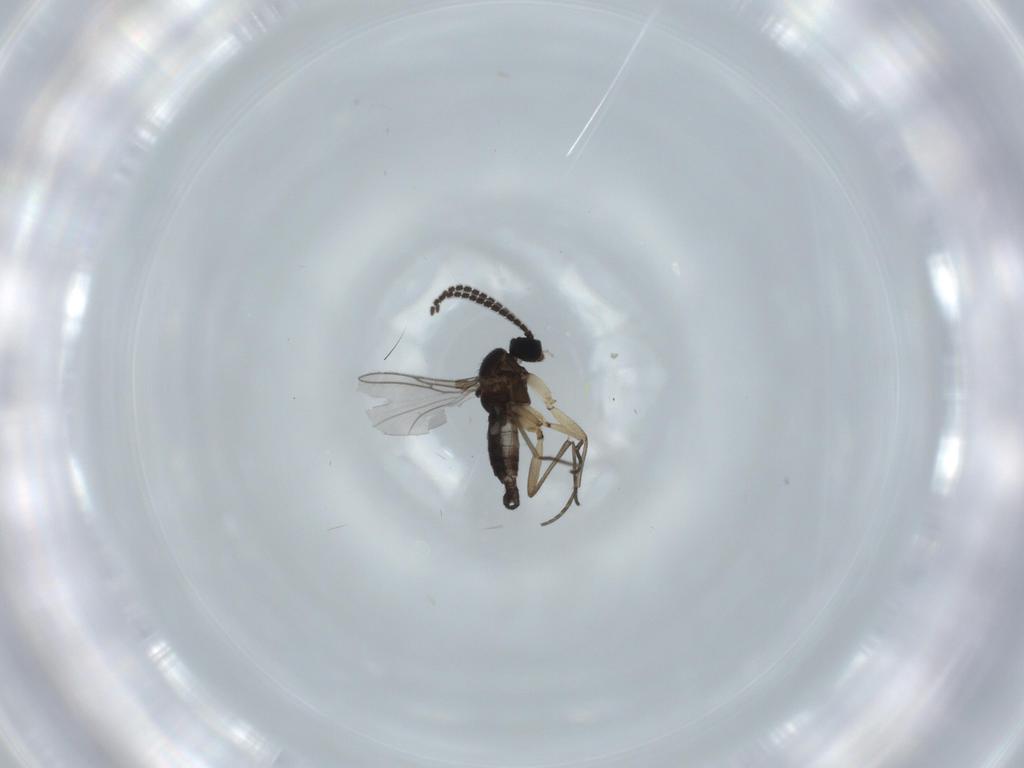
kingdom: Animalia
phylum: Arthropoda
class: Insecta
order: Diptera
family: Sciaridae
